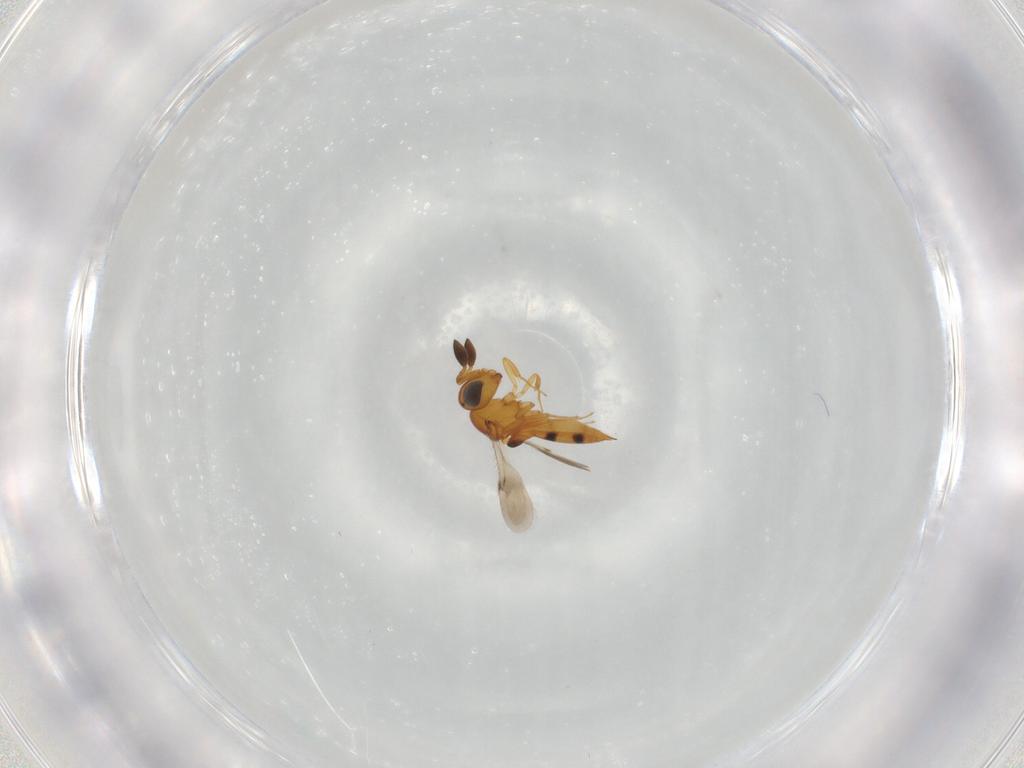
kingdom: Animalia
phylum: Arthropoda
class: Insecta
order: Hymenoptera
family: Scelionidae
